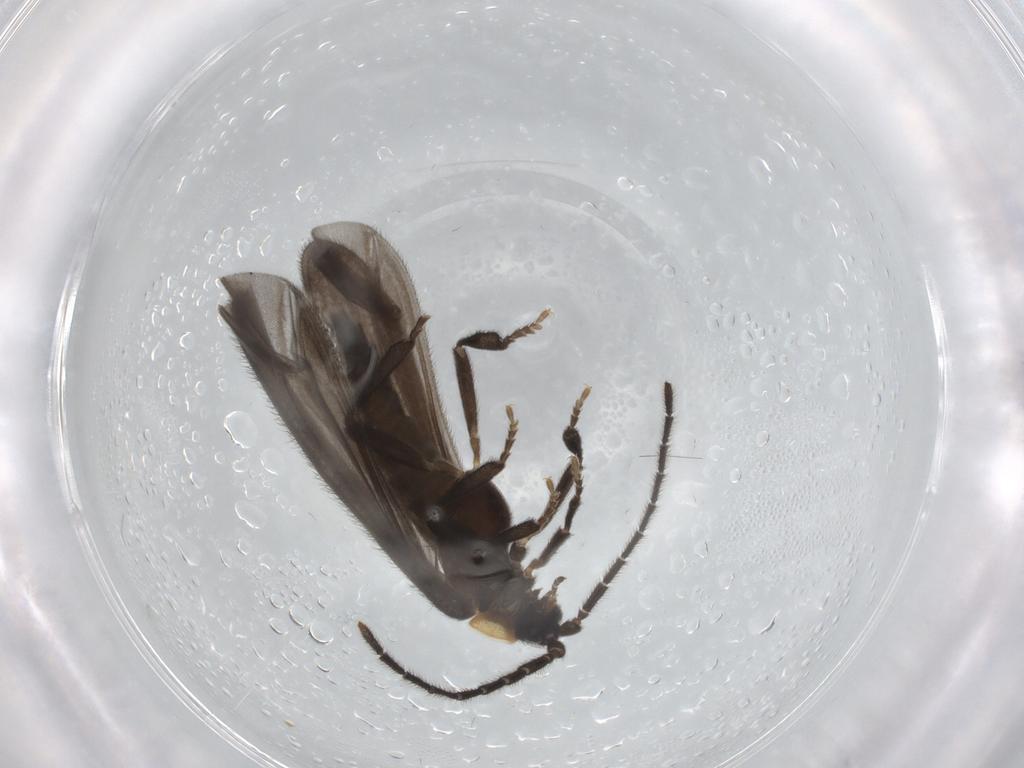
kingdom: Animalia
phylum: Arthropoda
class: Insecta
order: Coleoptera
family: Lycidae
